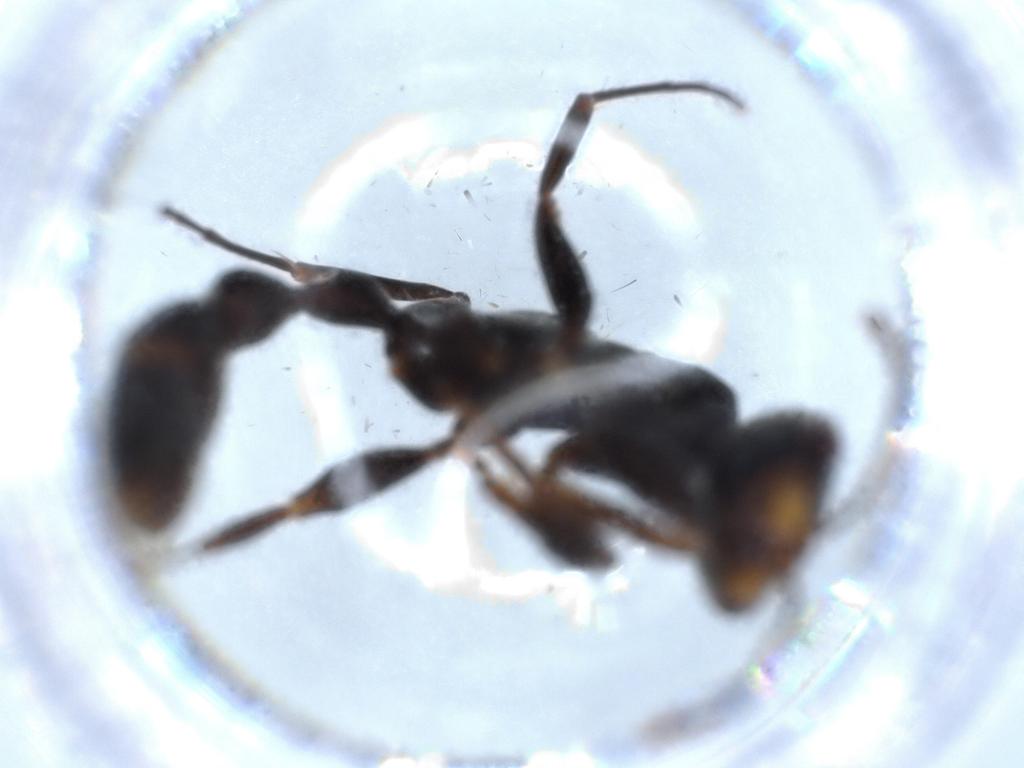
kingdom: Animalia
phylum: Arthropoda
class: Insecta
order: Hymenoptera
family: Formicidae
